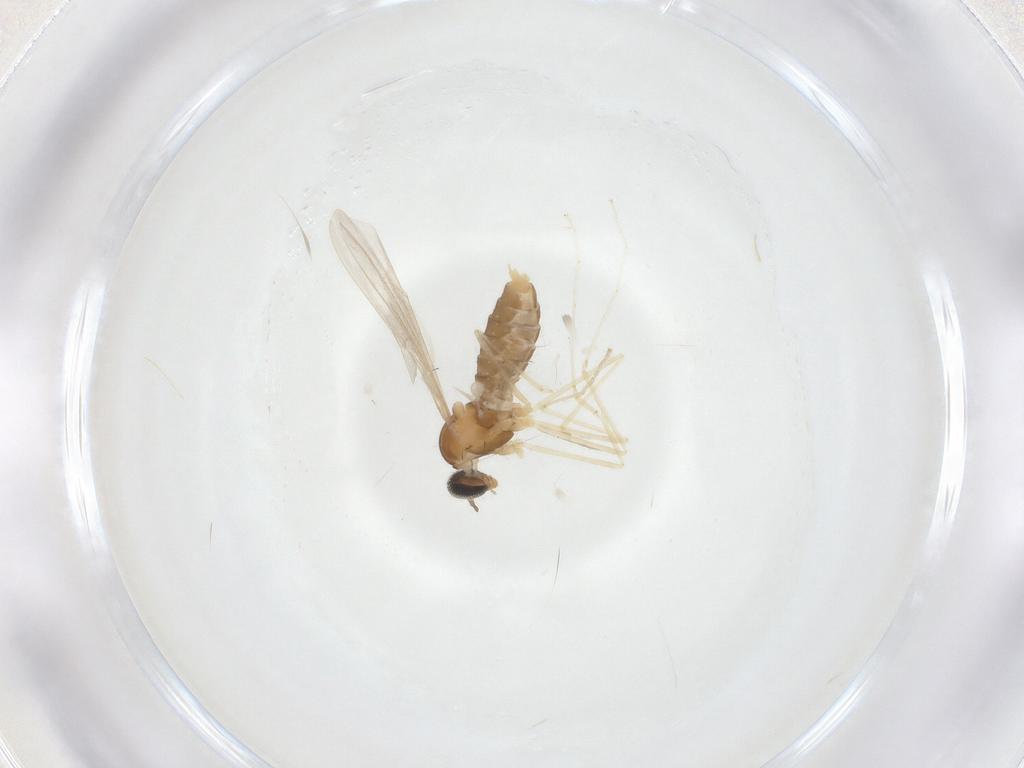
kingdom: Animalia
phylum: Arthropoda
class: Insecta
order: Diptera
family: Cecidomyiidae
